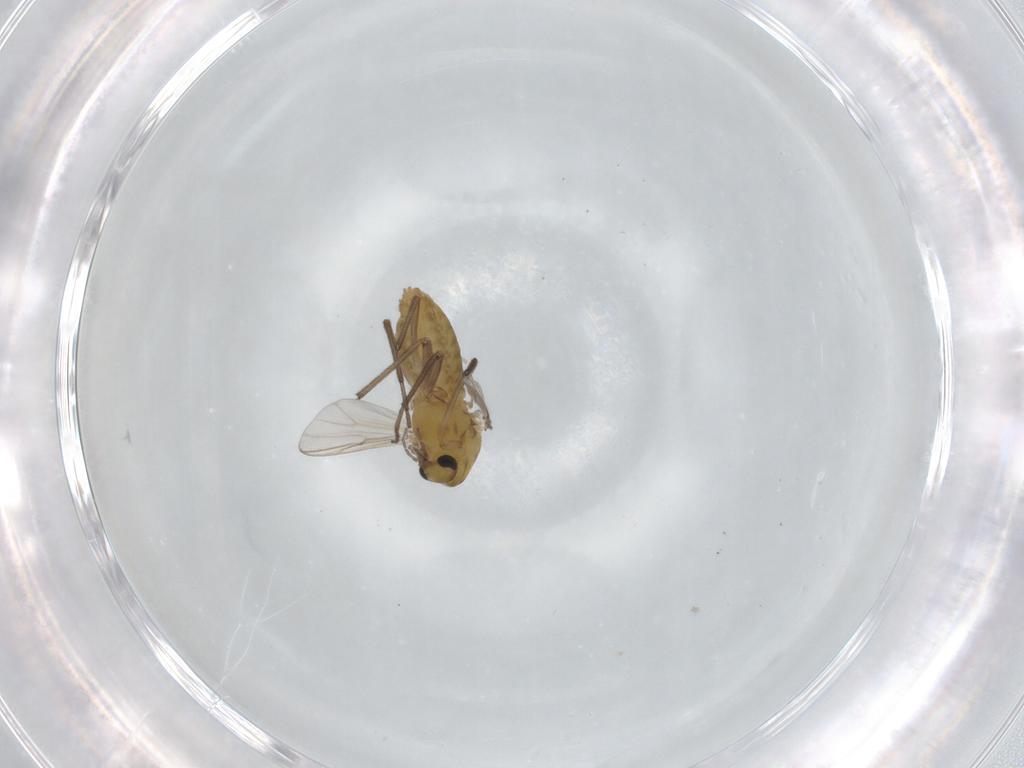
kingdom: Animalia
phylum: Arthropoda
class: Insecta
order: Diptera
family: Chironomidae
